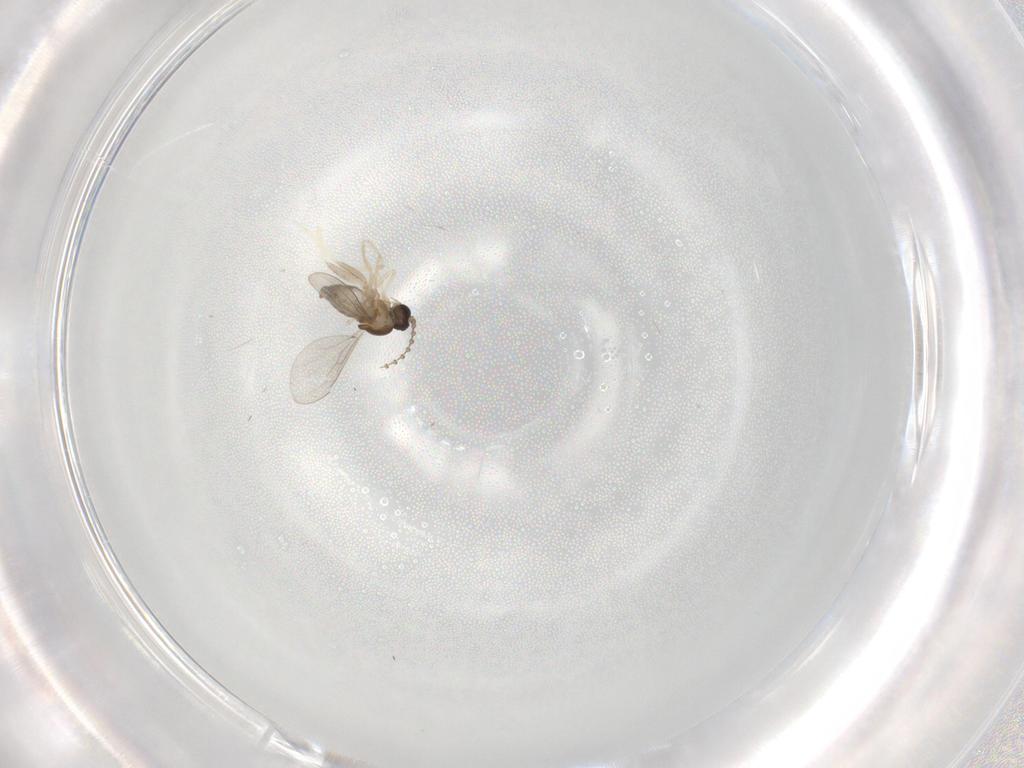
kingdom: Animalia
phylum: Arthropoda
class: Insecta
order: Diptera
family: Cecidomyiidae
